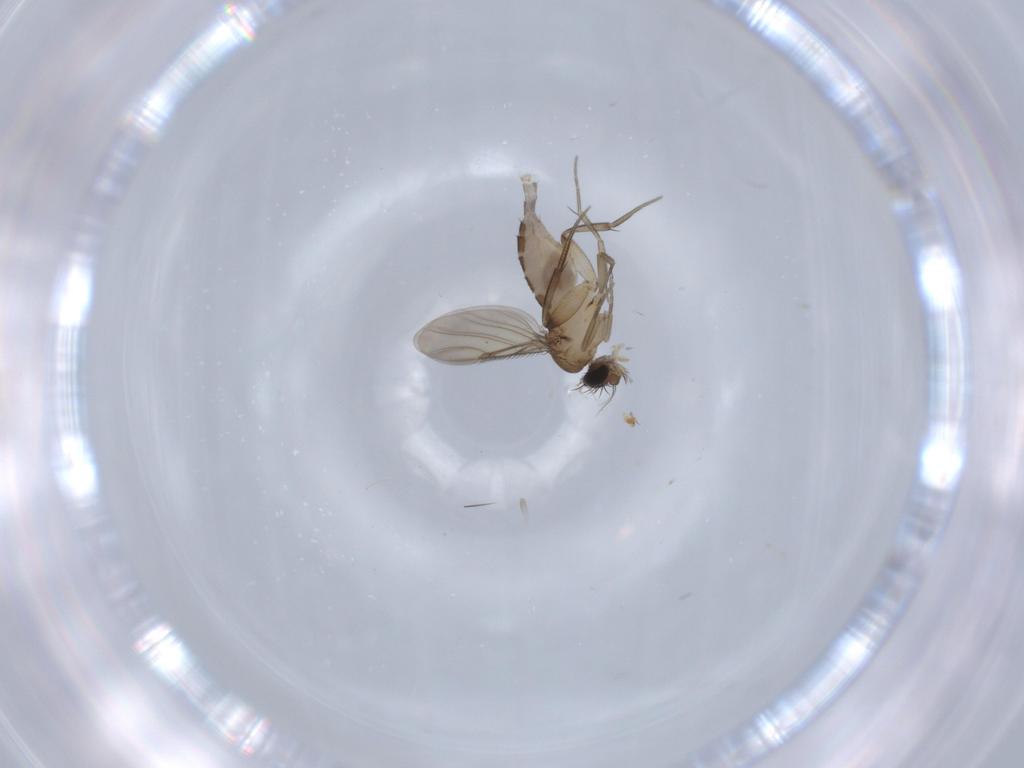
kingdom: Animalia
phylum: Arthropoda
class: Insecta
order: Diptera
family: Phoridae
